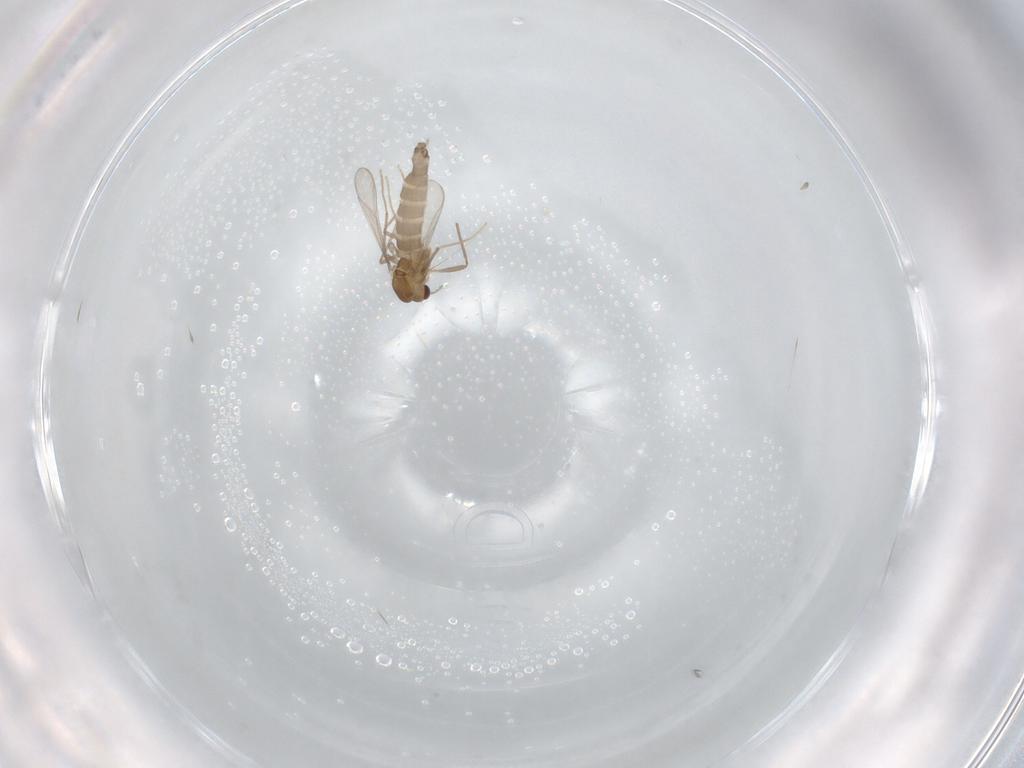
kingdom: Animalia
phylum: Arthropoda
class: Insecta
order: Diptera
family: Chironomidae
